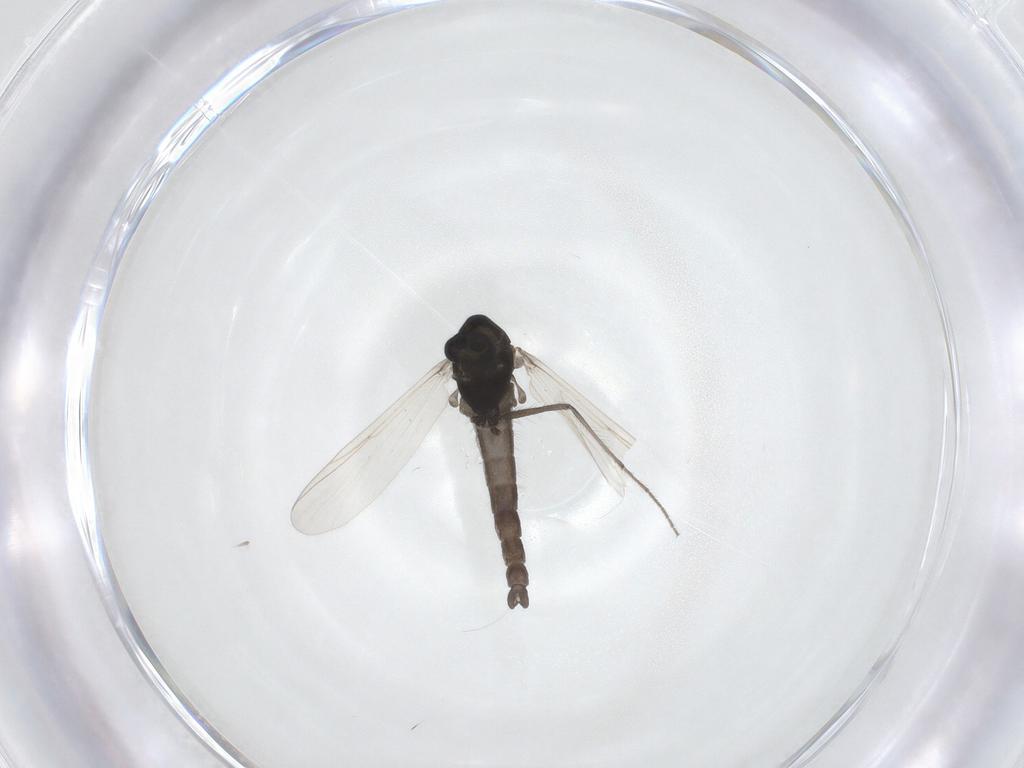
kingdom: Animalia
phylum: Arthropoda
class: Insecta
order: Diptera
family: Chironomidae
